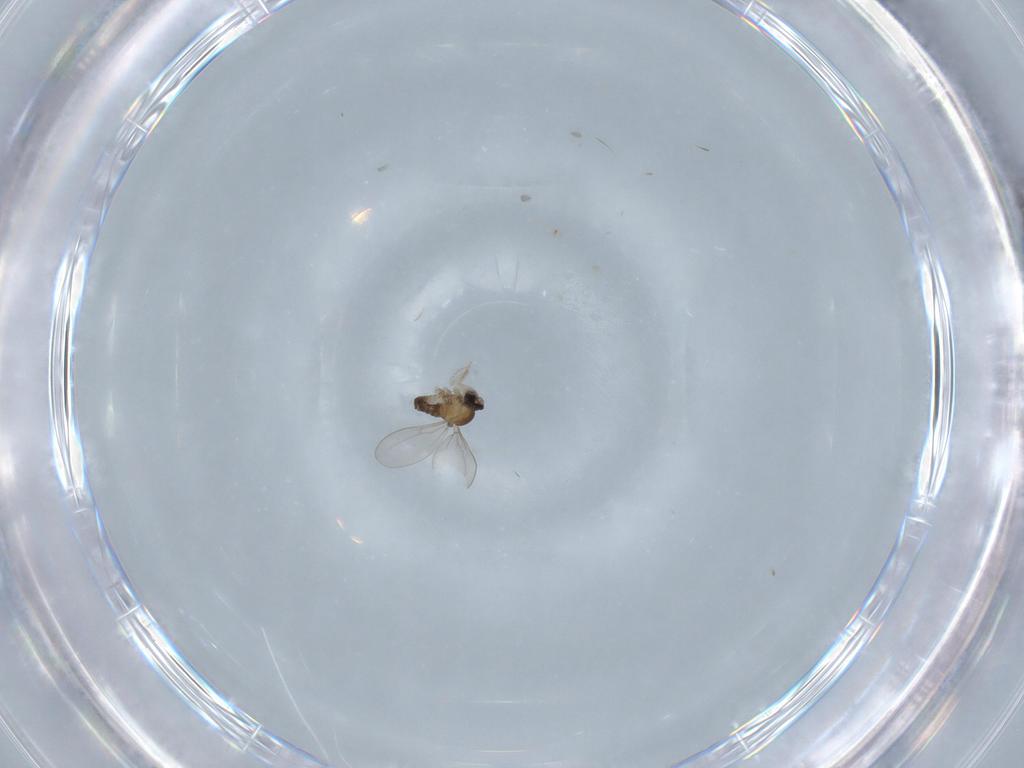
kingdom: Animalia
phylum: Arthropoda
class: Insecta
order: Diptera
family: Cecidomyiidae
